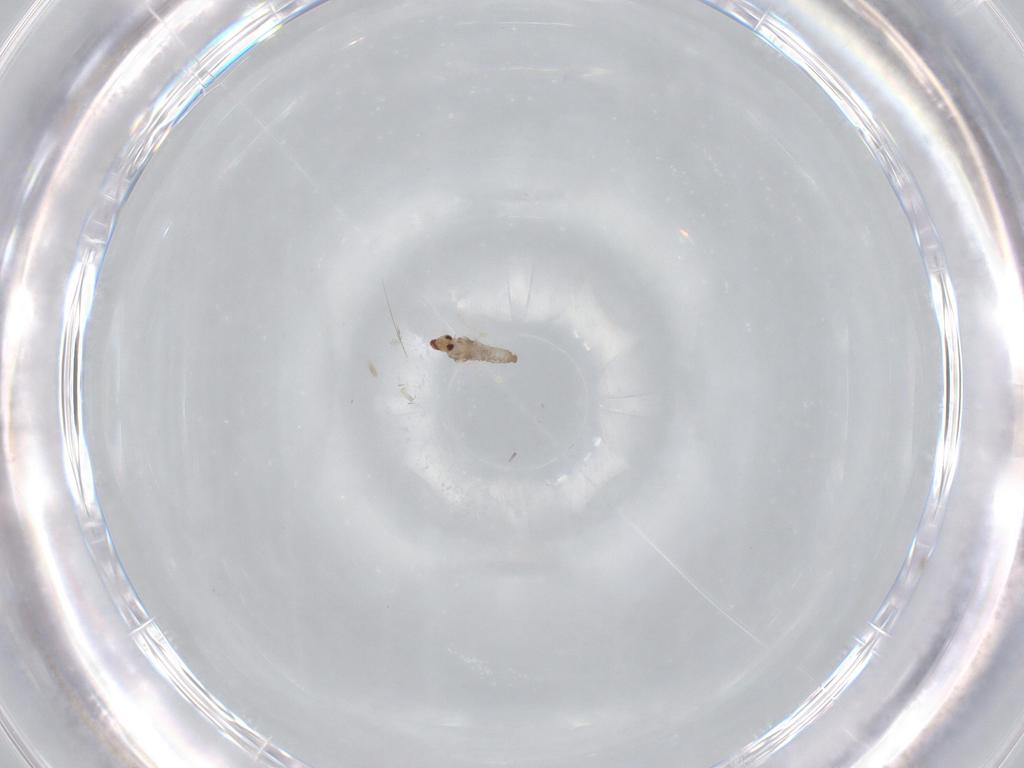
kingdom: Animalia
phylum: Arthropoda
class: Insecta
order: Diptera
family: Cecidomyiidae
